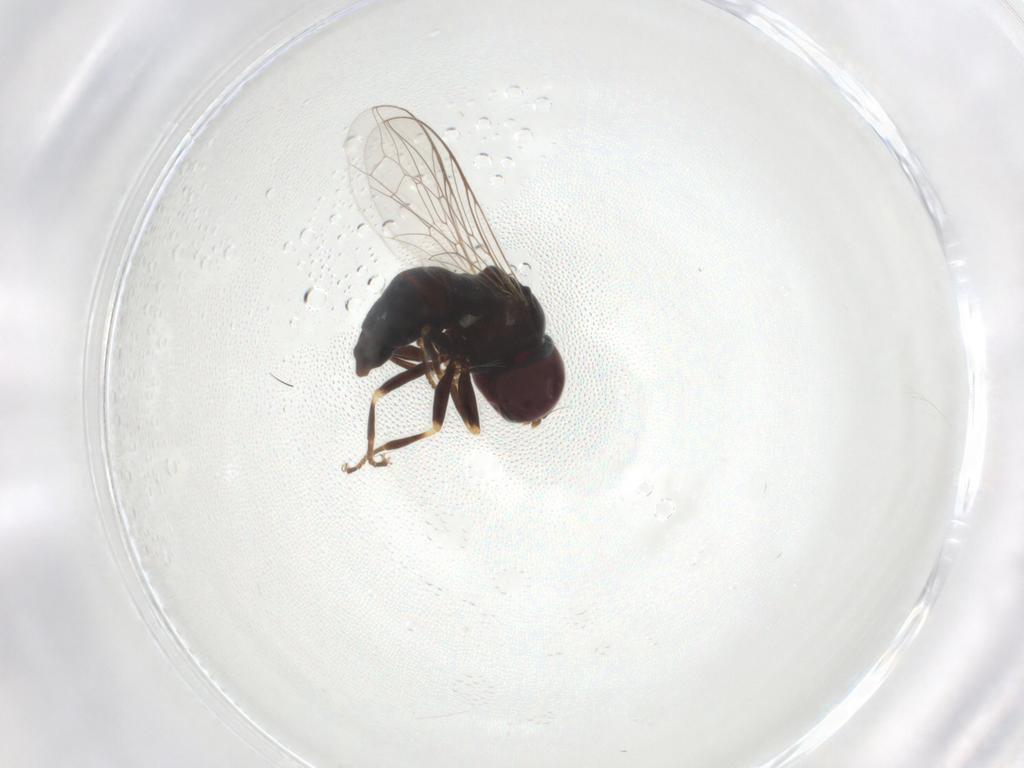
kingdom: Animalia
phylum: Arthropoda
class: Insecta
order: Diptera
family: Pipunculidae
